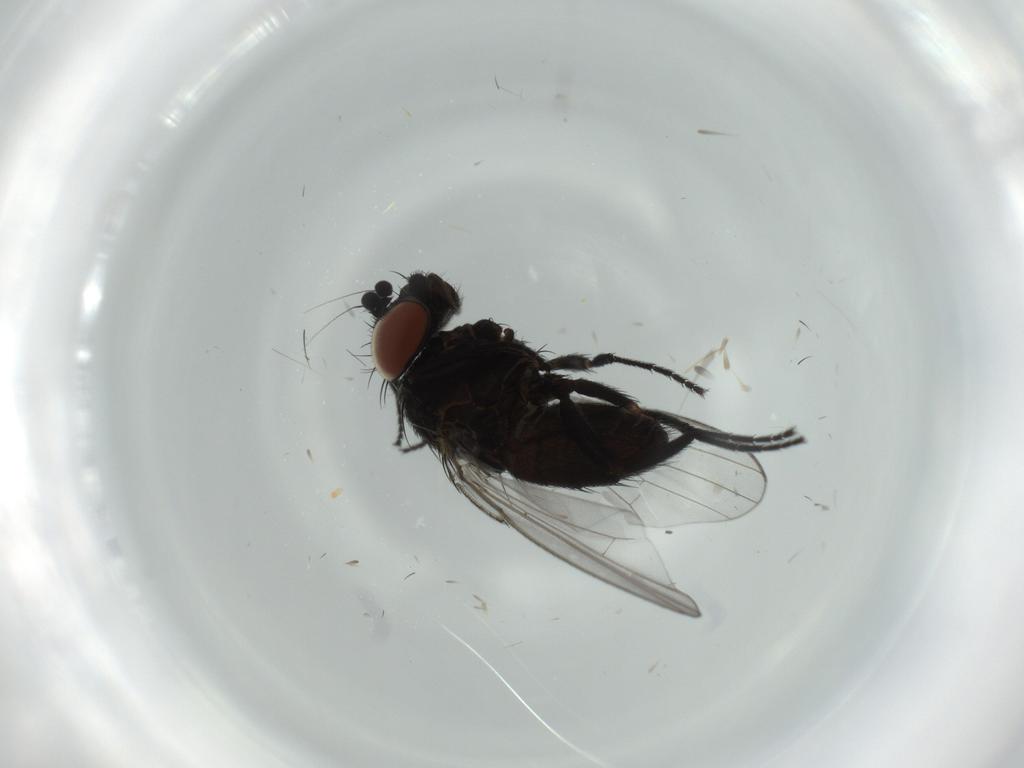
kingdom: Animalia
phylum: Arthropoda
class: Insecta
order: Diptera
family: Milichiidae
